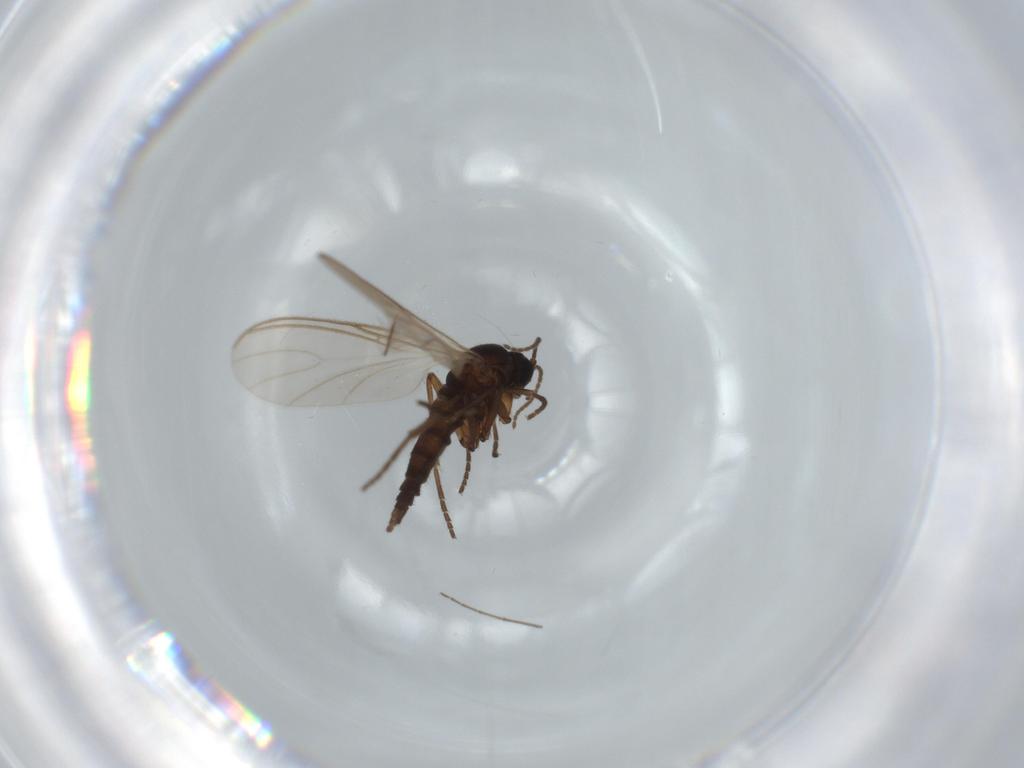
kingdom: Animalia
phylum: Arthropoda
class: Insecta
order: Diptera
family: Sciaridae
